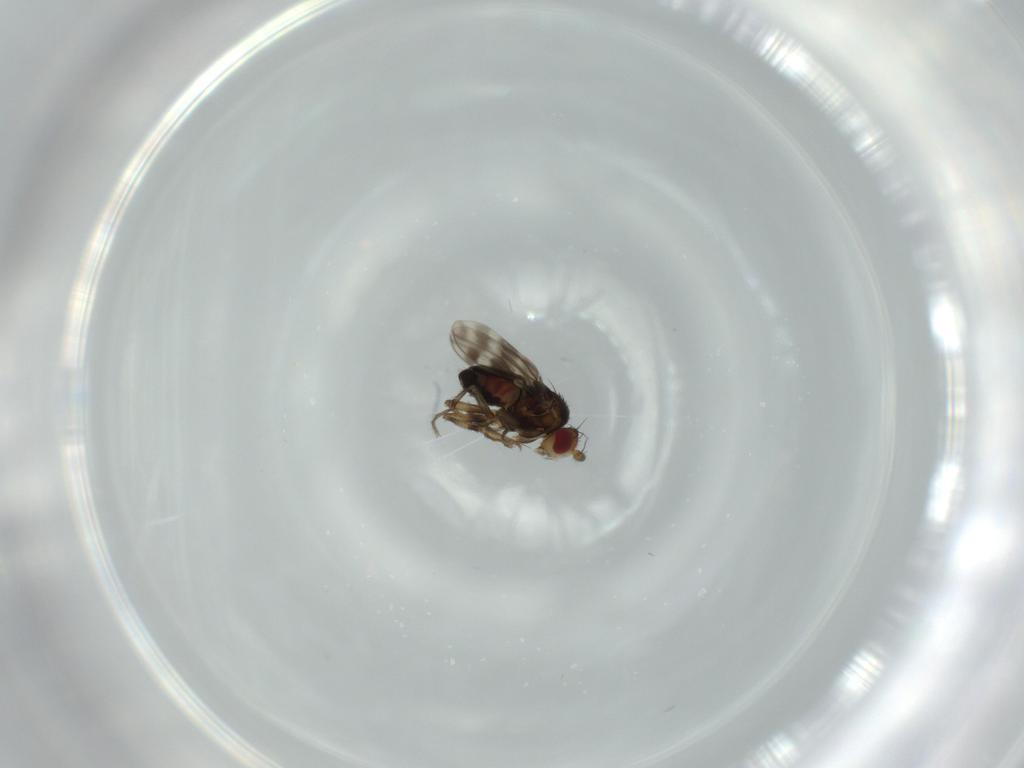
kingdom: Animalia
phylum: Arthropoda
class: Insecta
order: Diptera
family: Sphaeroceridae
